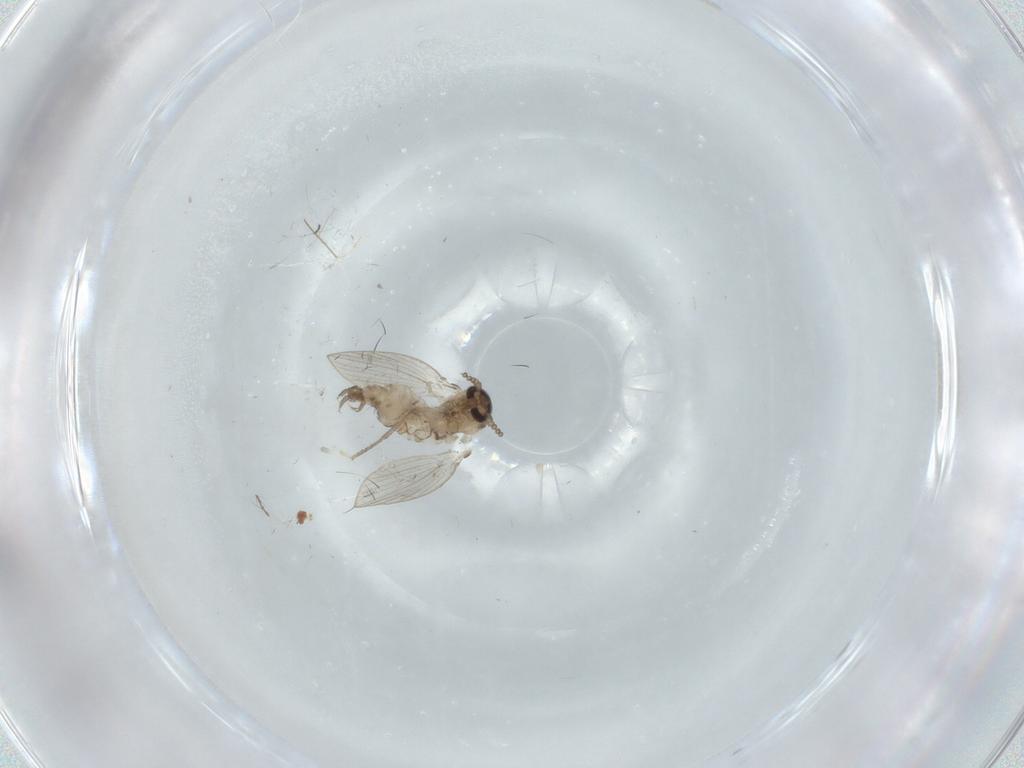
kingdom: Animalia
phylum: Arthropoda
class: Insecta
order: Diptera
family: Psychodidae
